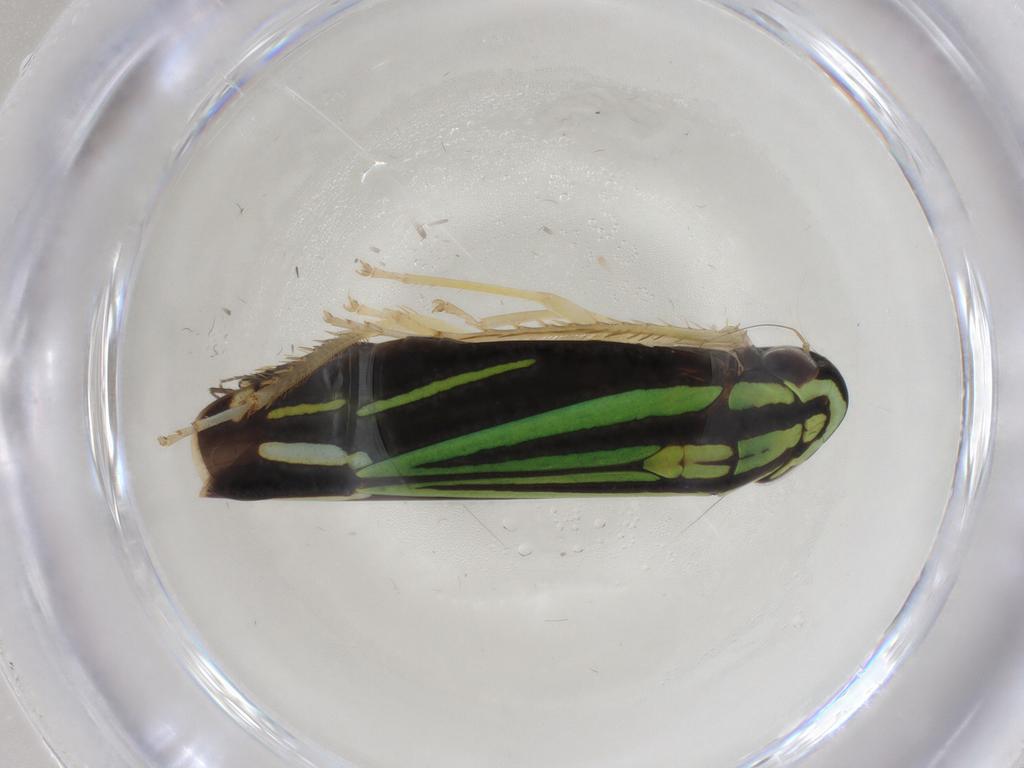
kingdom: Animalia
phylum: Arthropoda
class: Insecta
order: Hemiptera
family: Cicadellidae
